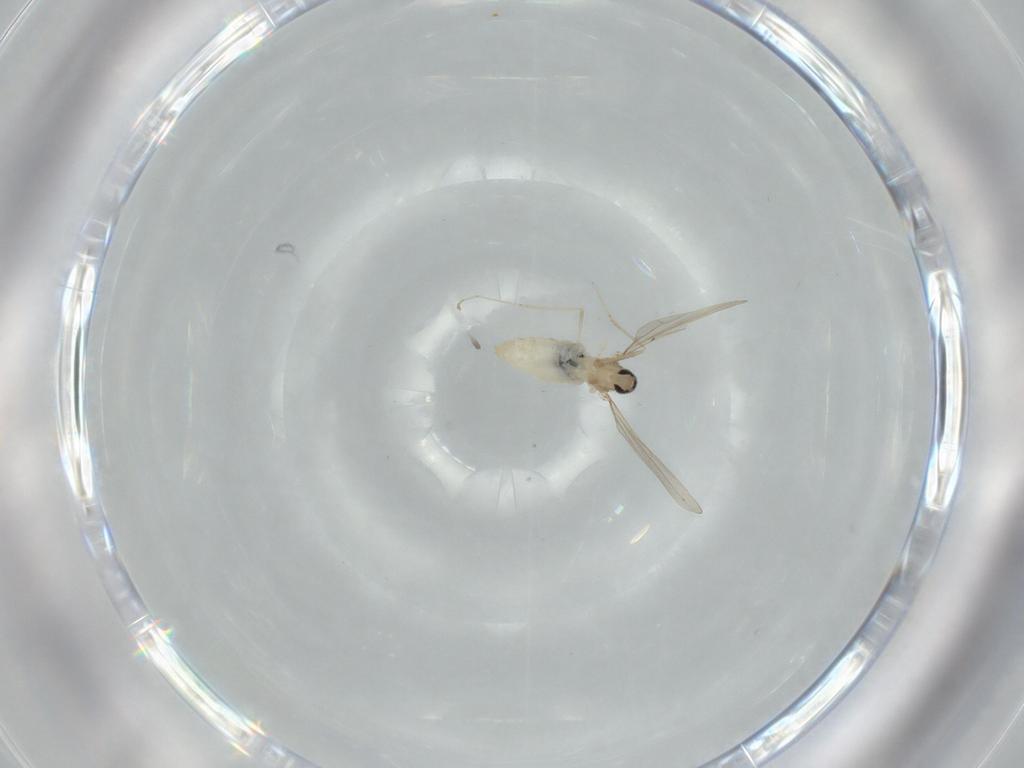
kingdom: Animalia
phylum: Arthropoda
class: Insecta
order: Diptera
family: Cecidomyiidae
